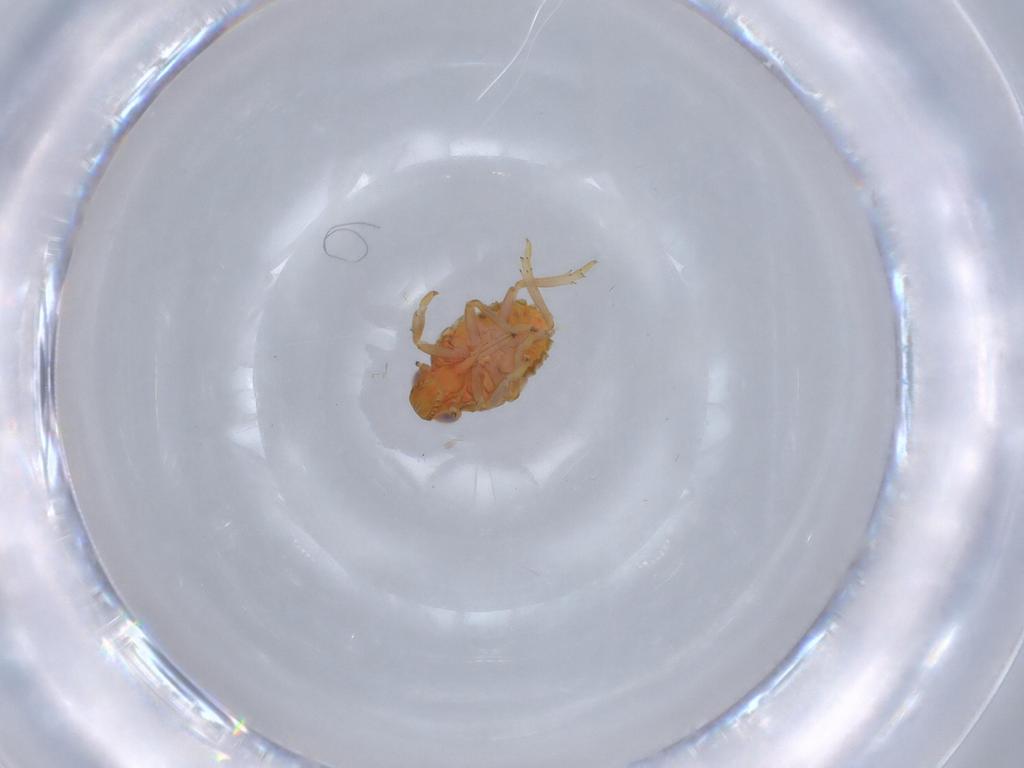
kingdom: Animalia
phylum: Arthropoda
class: Insecta
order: Hemiptera
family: Issidae
